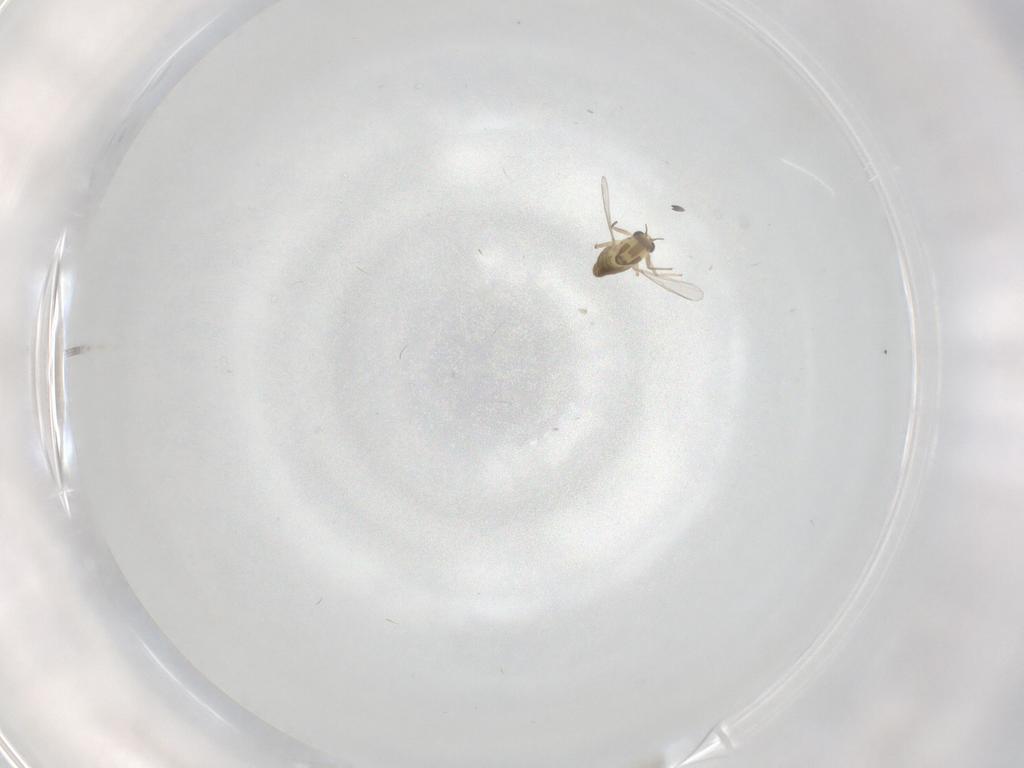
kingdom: Animalia
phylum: Arthropoda
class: Insecta
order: Diptera
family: Chironomidae
